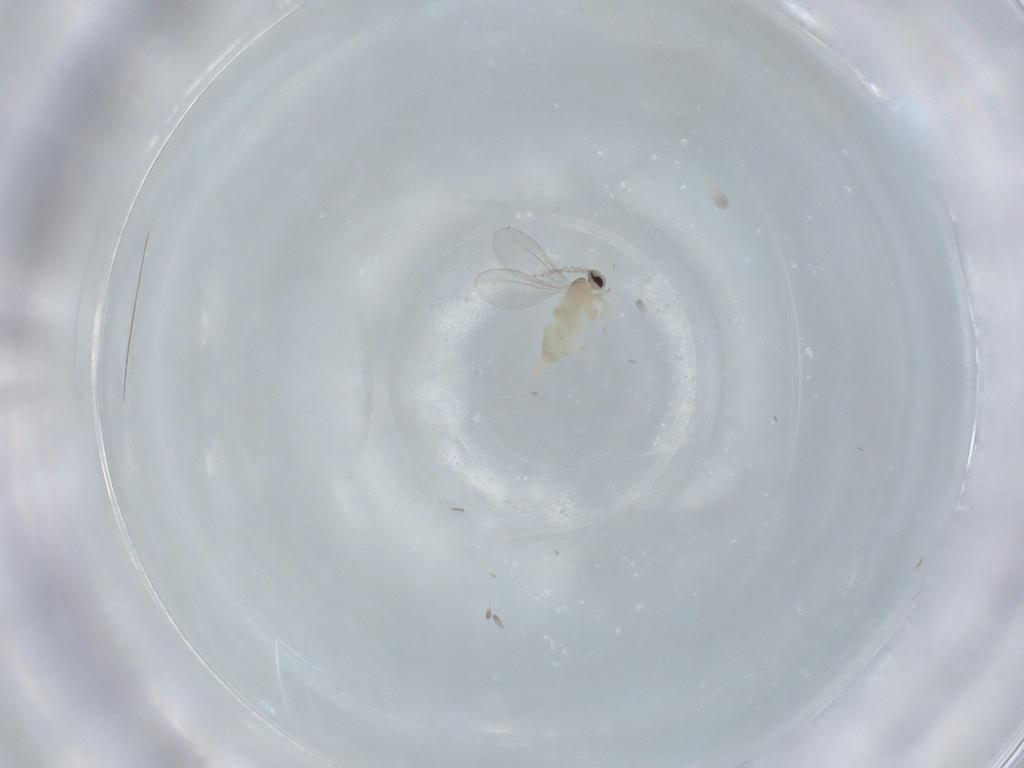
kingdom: Animalia
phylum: Arthropoda
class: Insecta
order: Diptera
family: Cecidomyiidae
